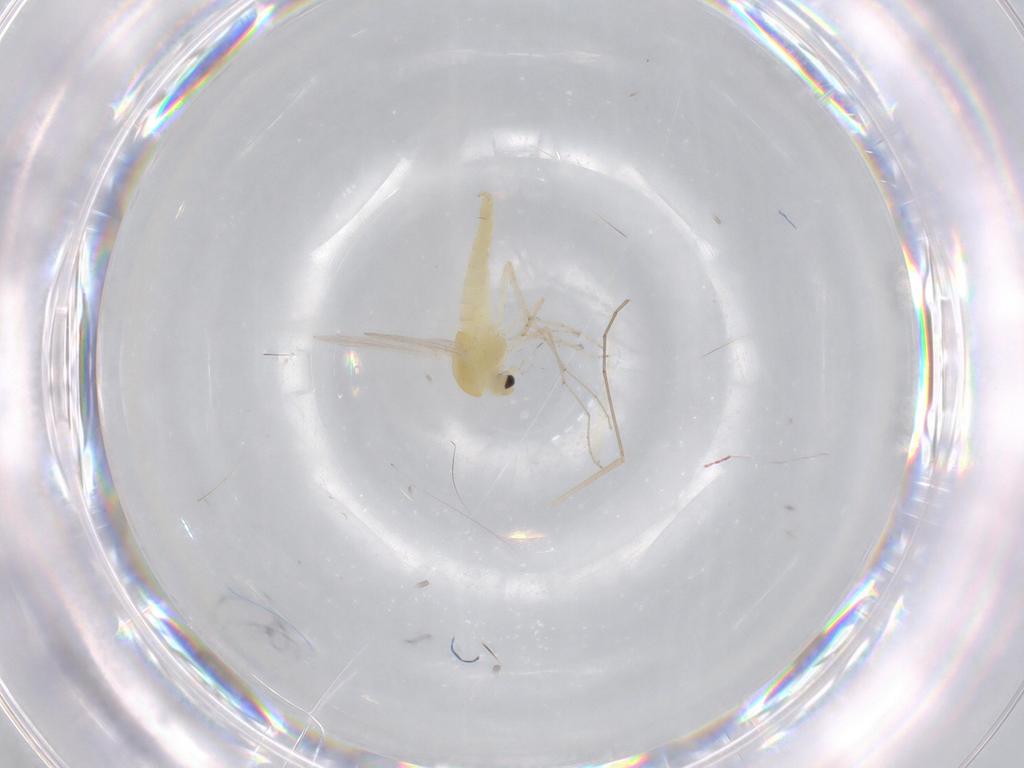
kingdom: Animalia
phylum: Arthropoda
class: Insecta
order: Diptera
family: Chironomidae
